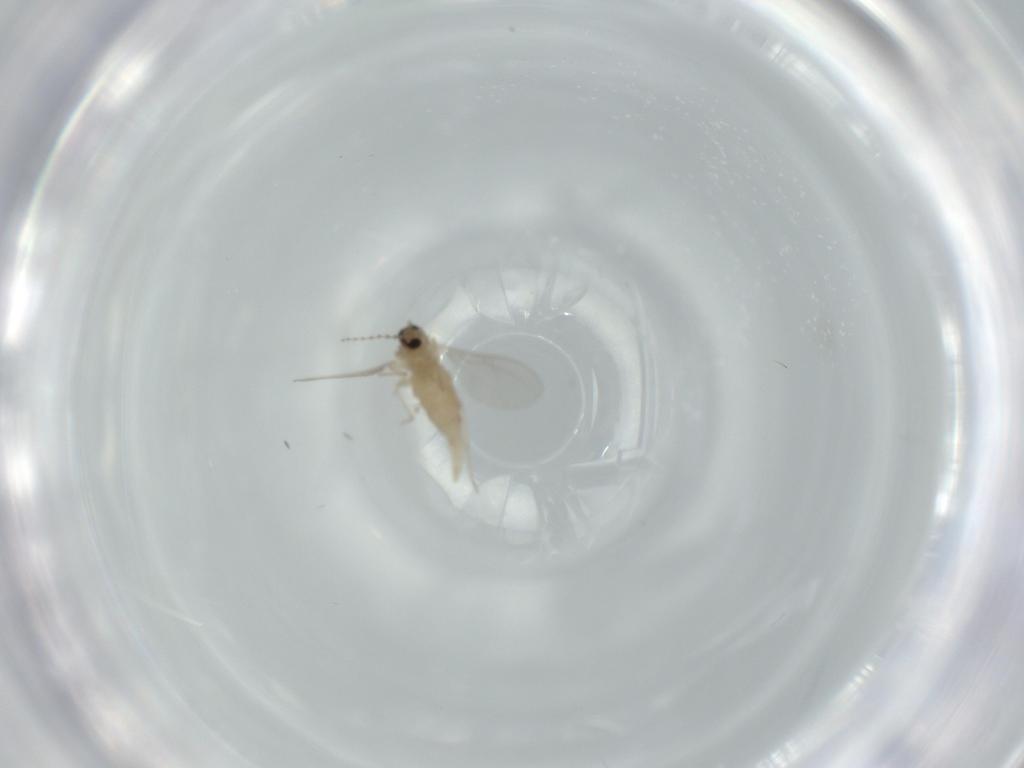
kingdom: Animalia
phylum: Arthropoda
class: Insecta
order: Diptera
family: Cecidomyiidae
